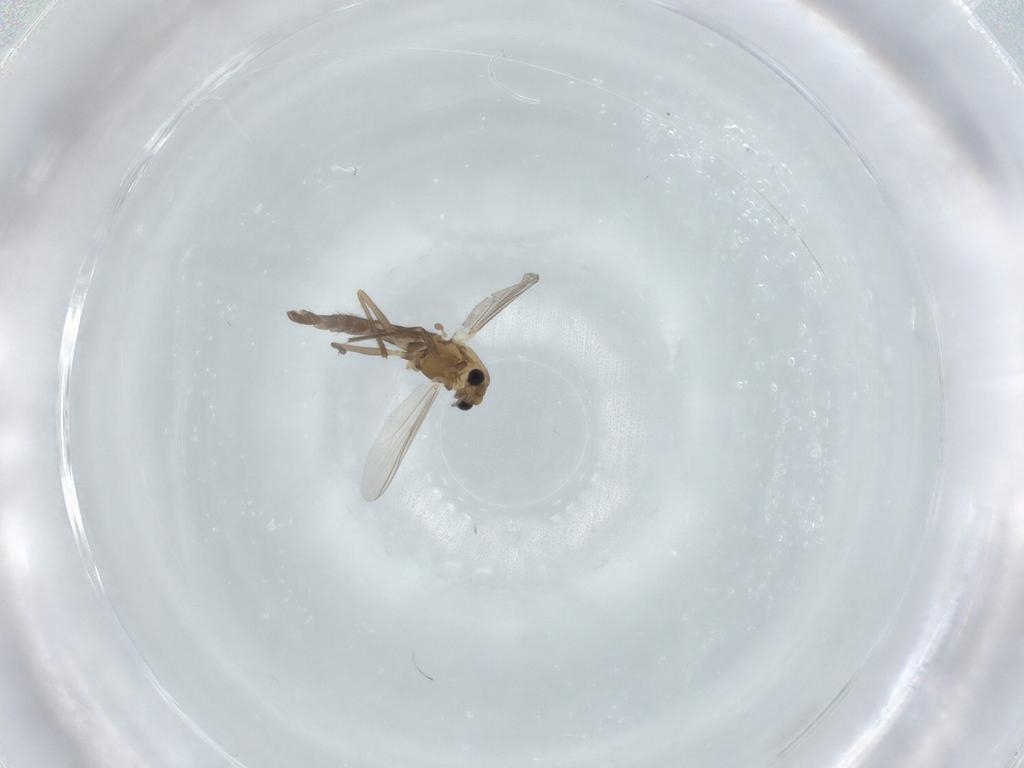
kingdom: Animalia
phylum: Arthropoda
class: Insecta
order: Diptera
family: Chironomidae
